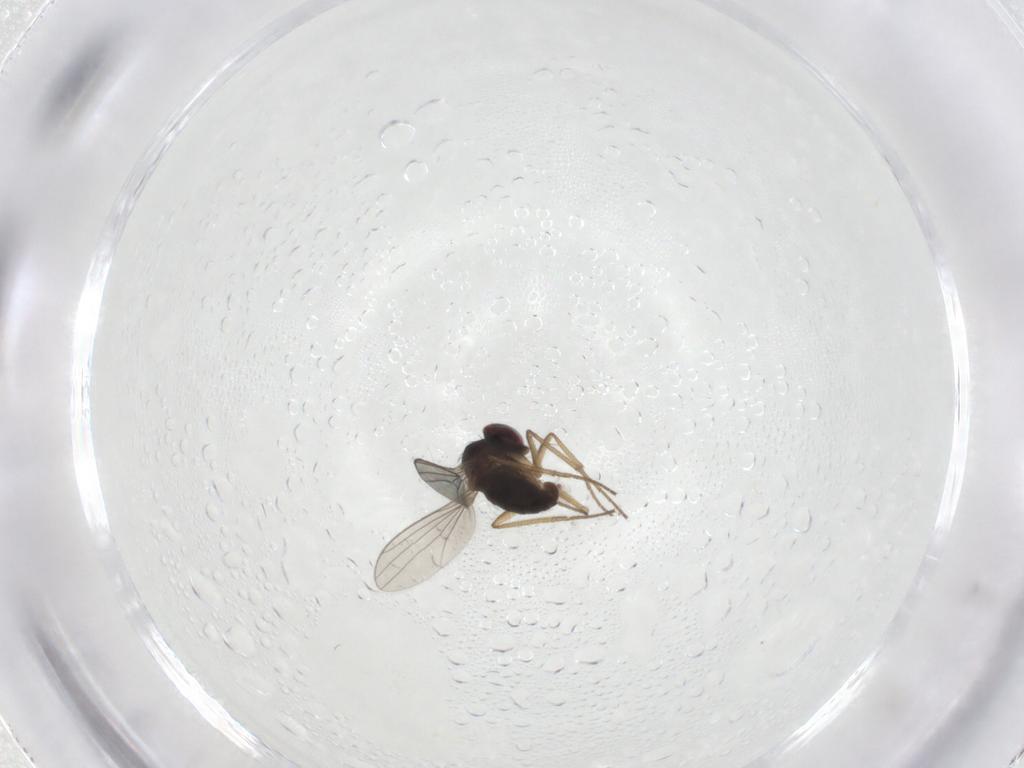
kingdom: Animalia
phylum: Arthropoda
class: Insecta
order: Diptera
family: Dolichopodidae
